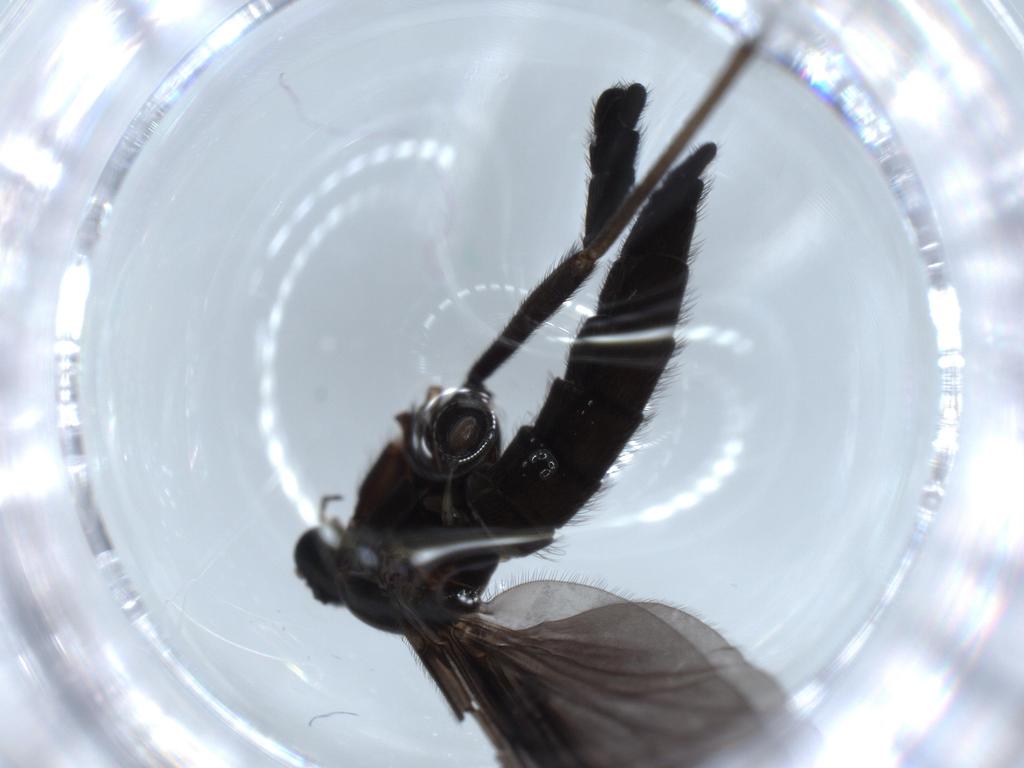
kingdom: Animalia
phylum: Arthropoda
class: Insecta
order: Diptera
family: Sciaridae
